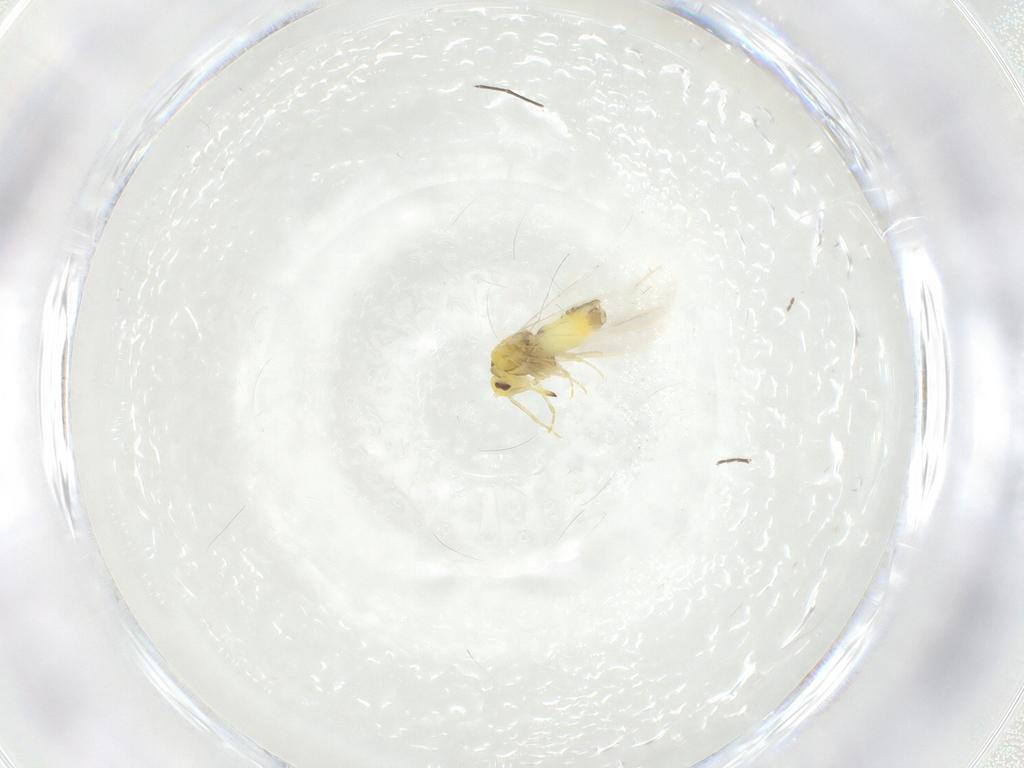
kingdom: Animalia
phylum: Arthropoda
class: Insecta
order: Hemiptera
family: Aleyrodidae
